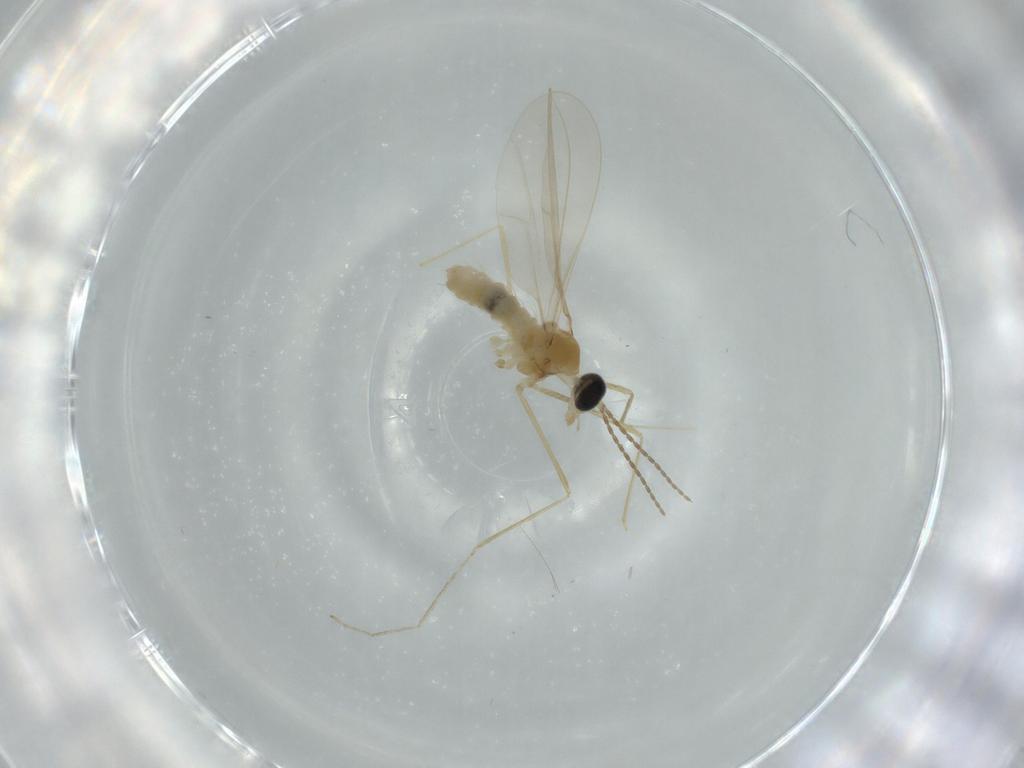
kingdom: Animalia
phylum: Arthropoda
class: Insecta
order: Diptera
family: Cecidomyiidae
